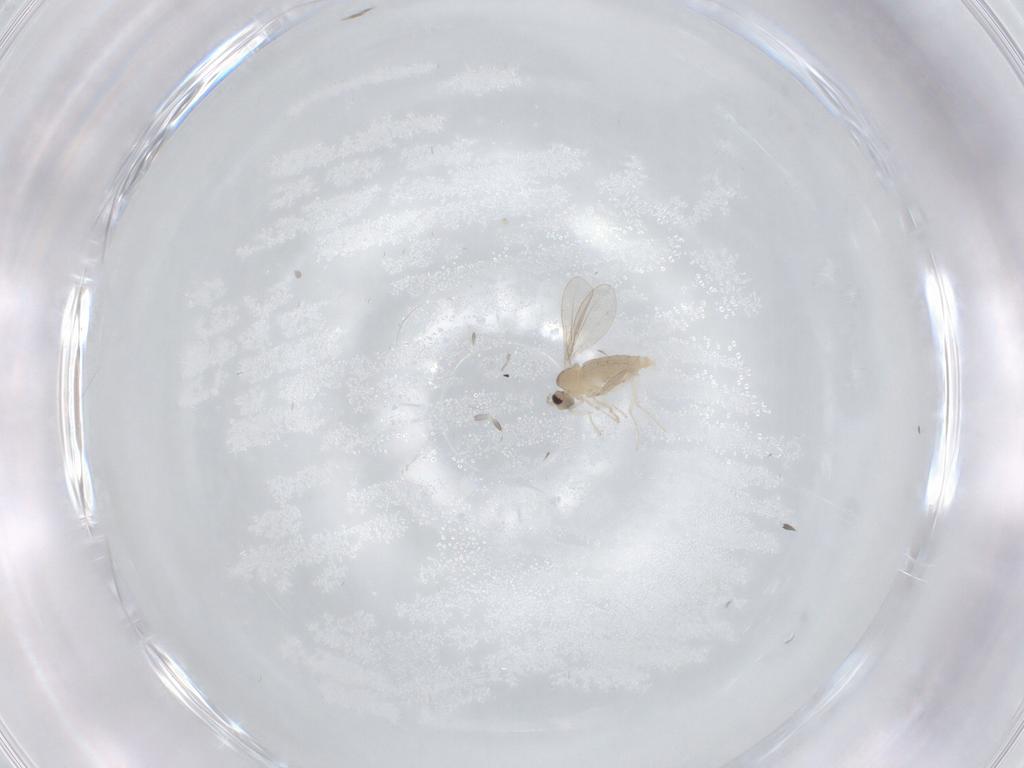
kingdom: Animalia
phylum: Arthropoda
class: Insecta
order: Diptera
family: Cecidomyiidae
